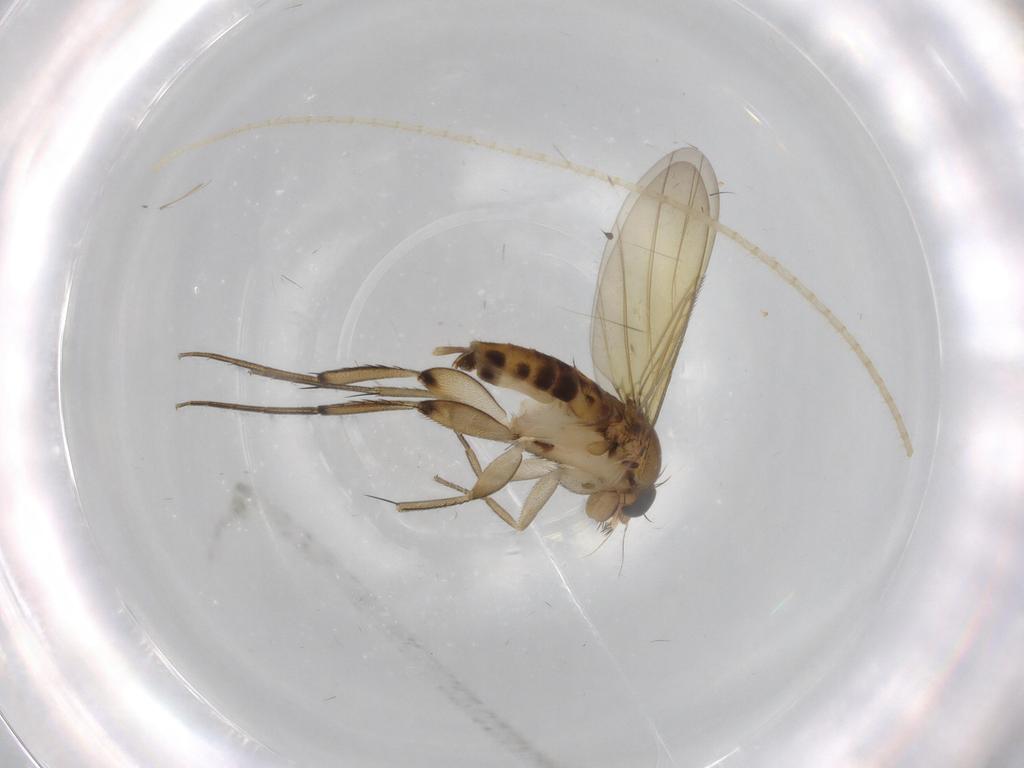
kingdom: Animalia
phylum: Arthropoda
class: Insecta
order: Diptera
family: Phoridae
